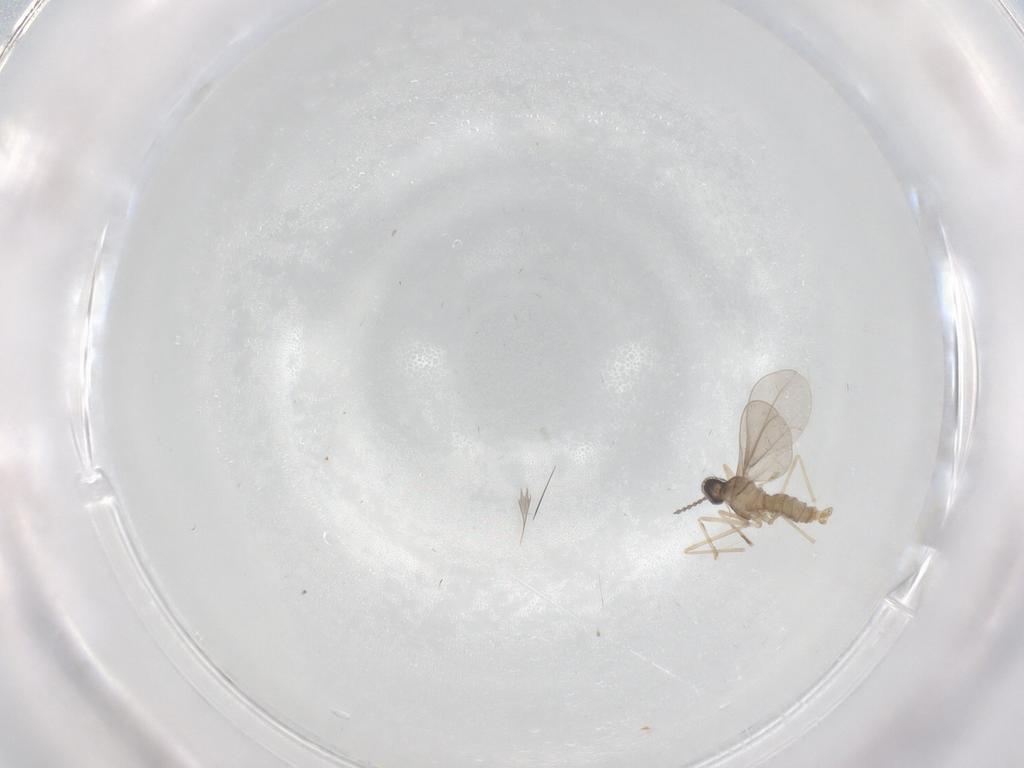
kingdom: Animalia
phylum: Arthropoda
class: Insecta
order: Diptera
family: Cecidomyiidae
